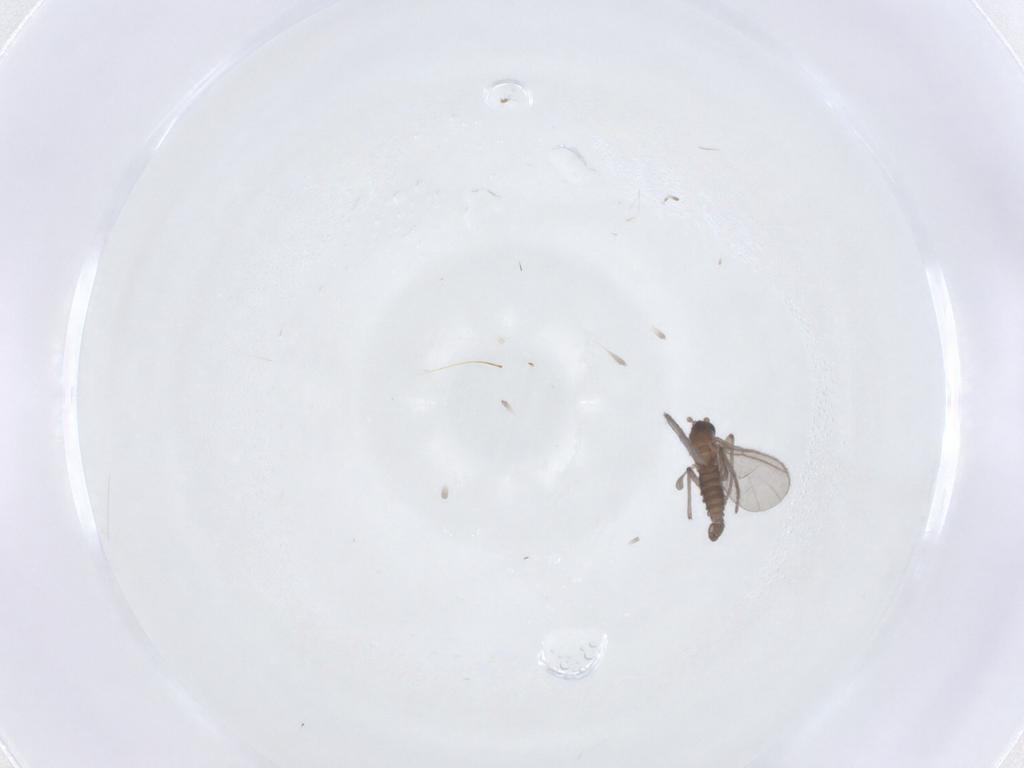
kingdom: Animalia
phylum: Arthropoda
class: Insecta
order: Diptera
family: Sciaridae
